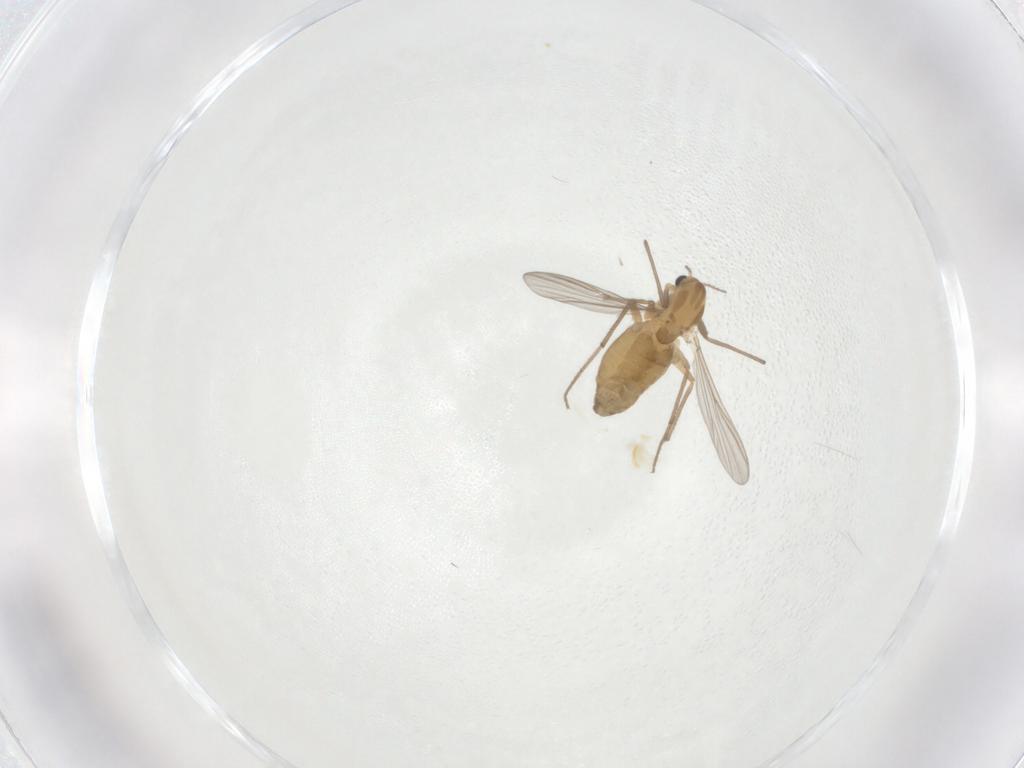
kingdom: Animalia
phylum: Arthropoda
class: Insecta
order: Diptera
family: Chironomidae
